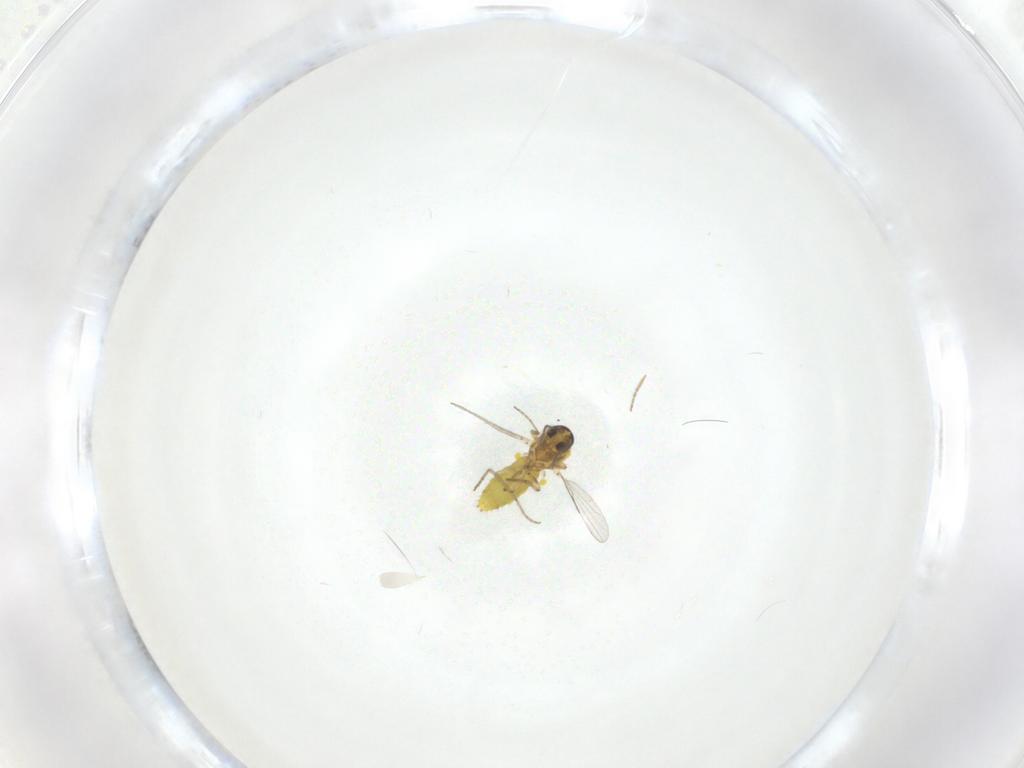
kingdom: Animalia
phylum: Arthropoda
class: Insecta
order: Diptera
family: Ceratopogonidae
